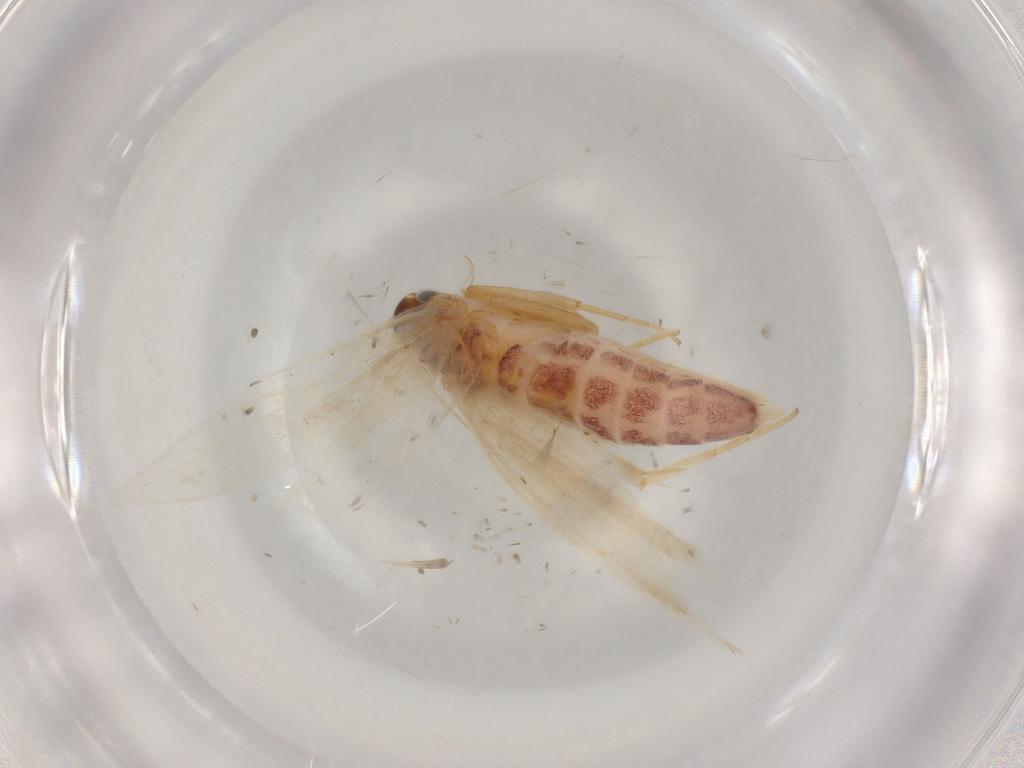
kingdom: Animalia
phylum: Arthropoda
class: Insecta
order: Lepidoptera
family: Gelechiidae
